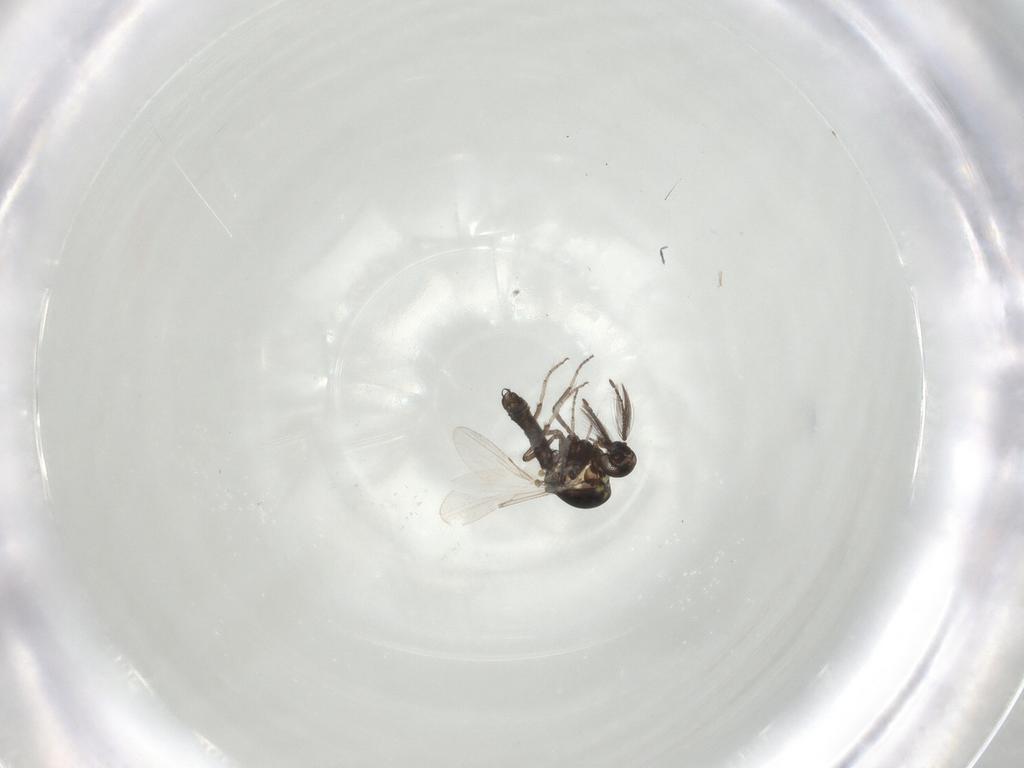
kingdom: Animalia
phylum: Arthropoda
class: Insecta
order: Diptera
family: Ceratopogonidae
